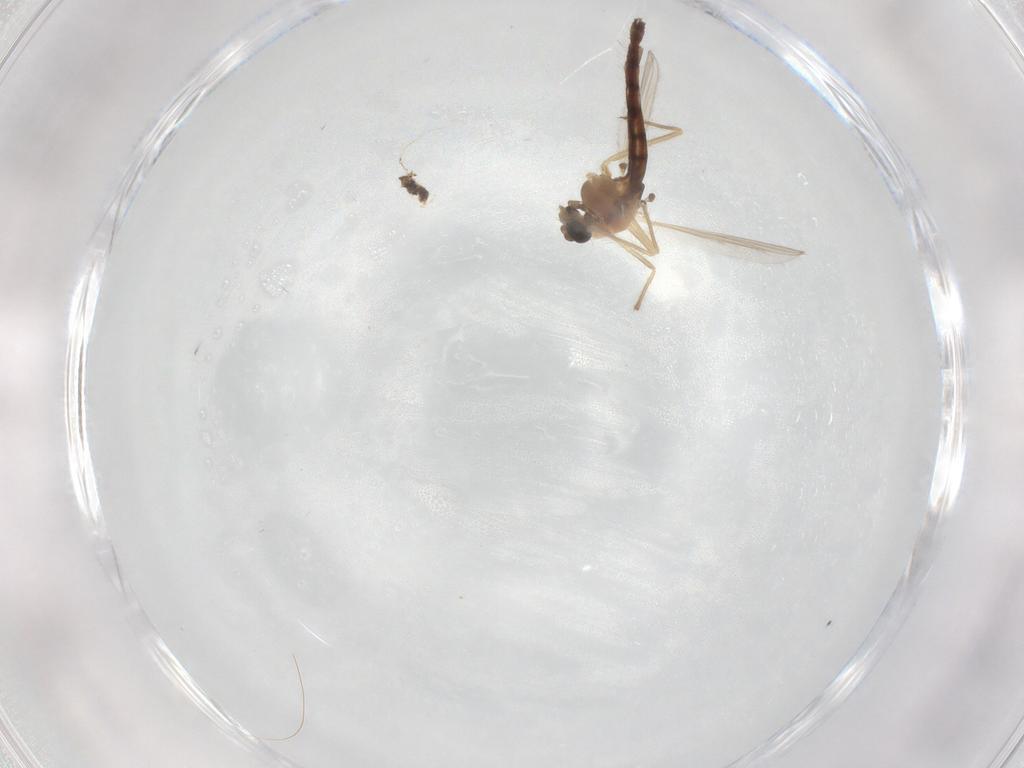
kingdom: Animalia
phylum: Arthropoda
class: Insecta
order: Diptera
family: Chironomidae
